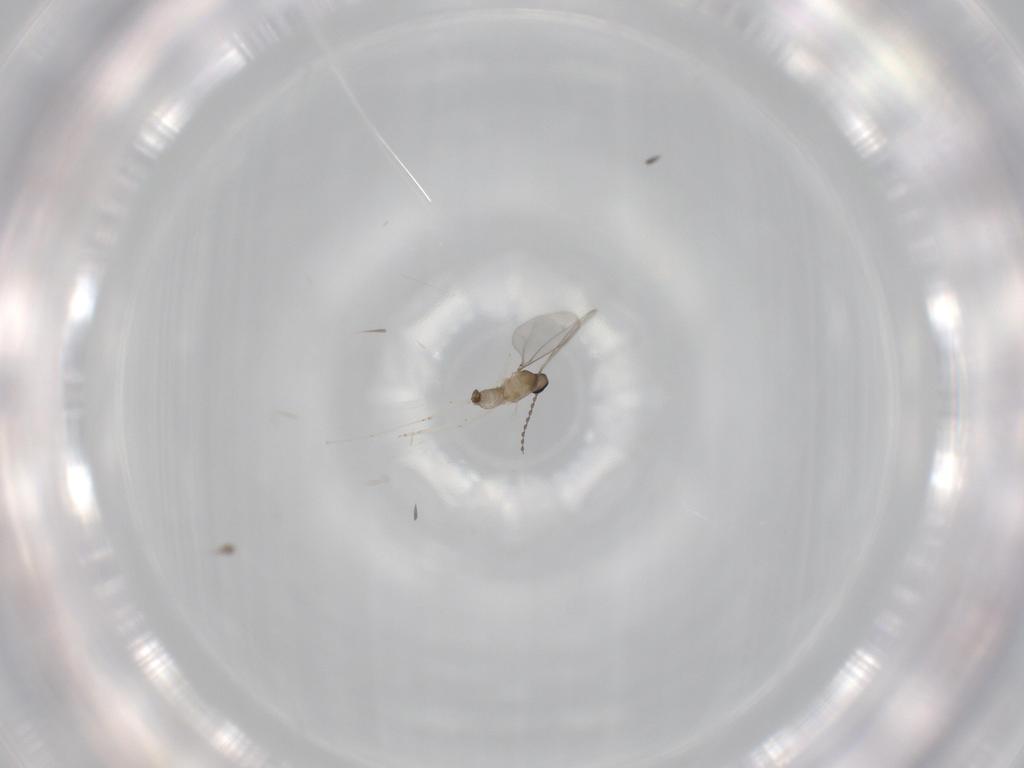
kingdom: Animalia
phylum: Arthropoda
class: Insecta
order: Diptera
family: Cecidomyiidae
